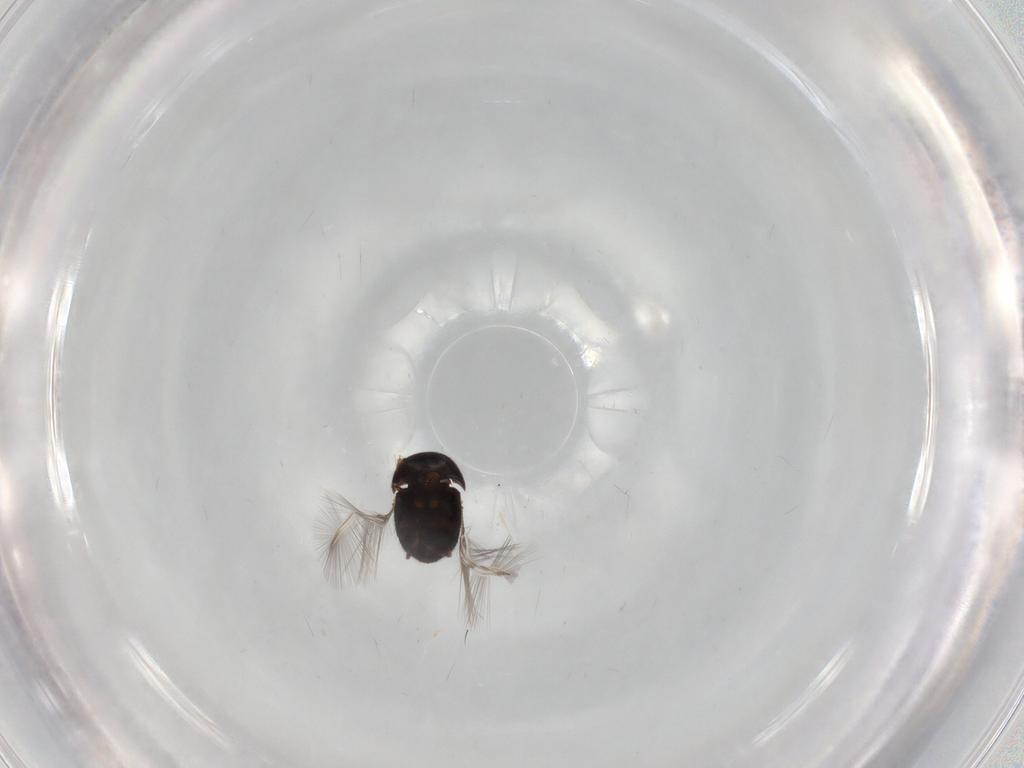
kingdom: Animalia
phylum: Arthropoda
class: Insecta
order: Coleoptera
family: Ptiliidae
